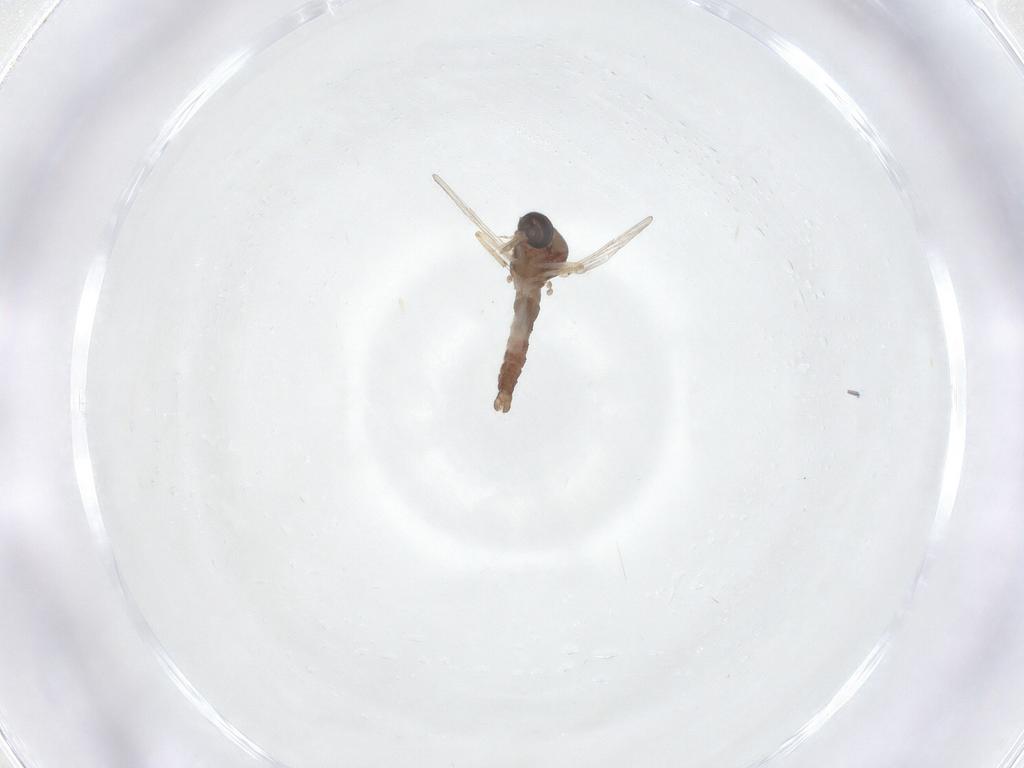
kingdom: Animalia
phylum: Arthropoda
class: Insecta
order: Diptera
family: Ceratopogonidae
